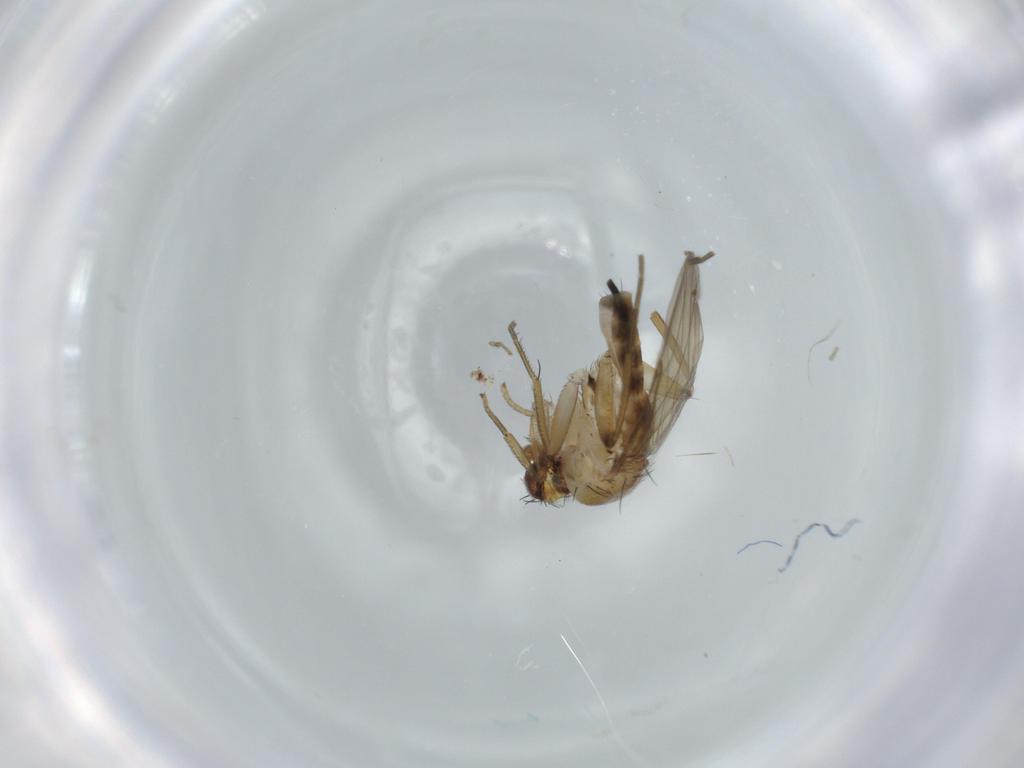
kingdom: Animalia
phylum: Arthropoda
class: Insecta
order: Diptera
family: Phoridae
